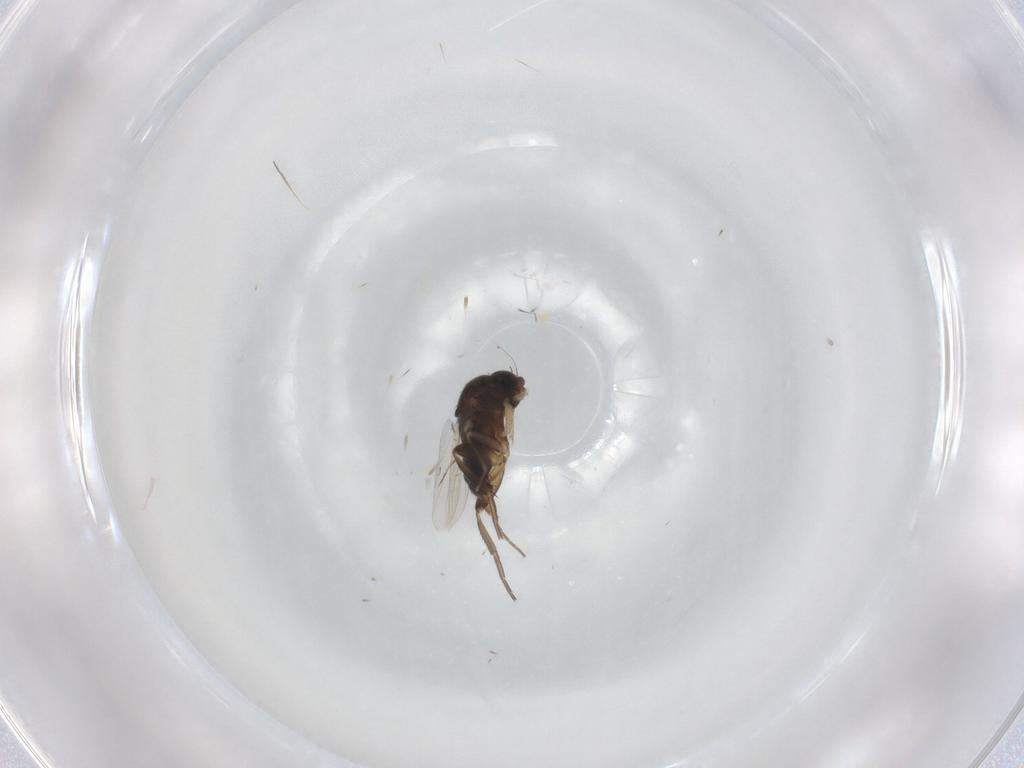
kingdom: Animalia
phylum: Arthropoda
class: Insecta
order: Diptera
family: Phoridae
